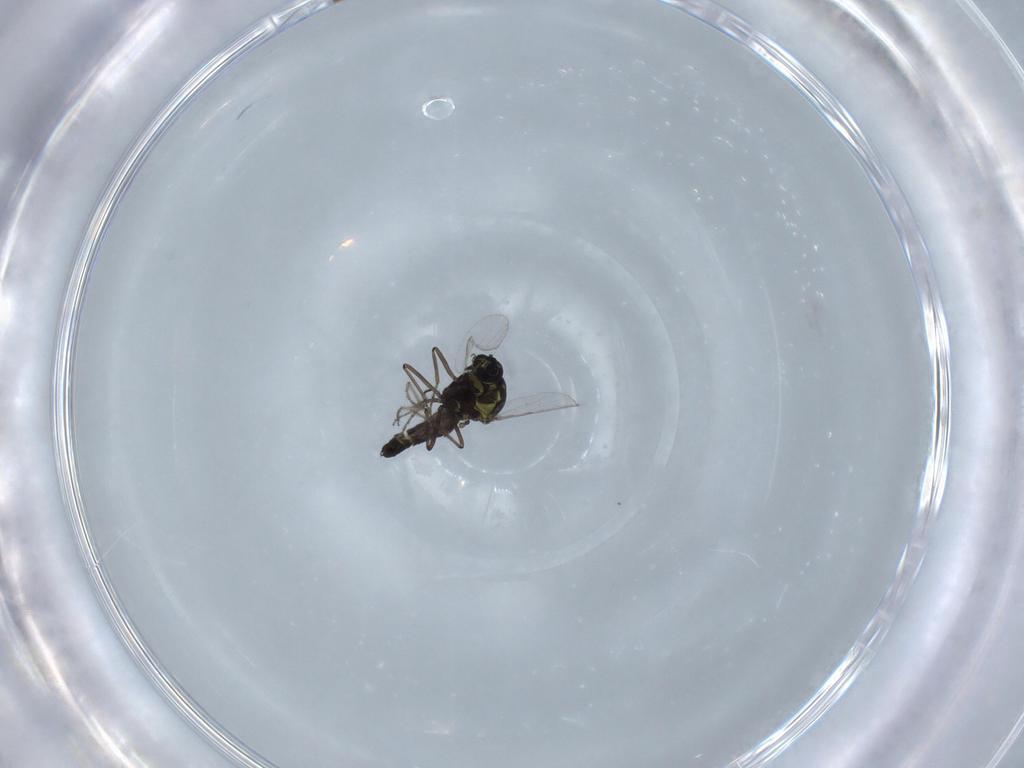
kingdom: Animalia
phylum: Arthropoda
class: Insecta
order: Diptera
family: Ceratopogonidae
